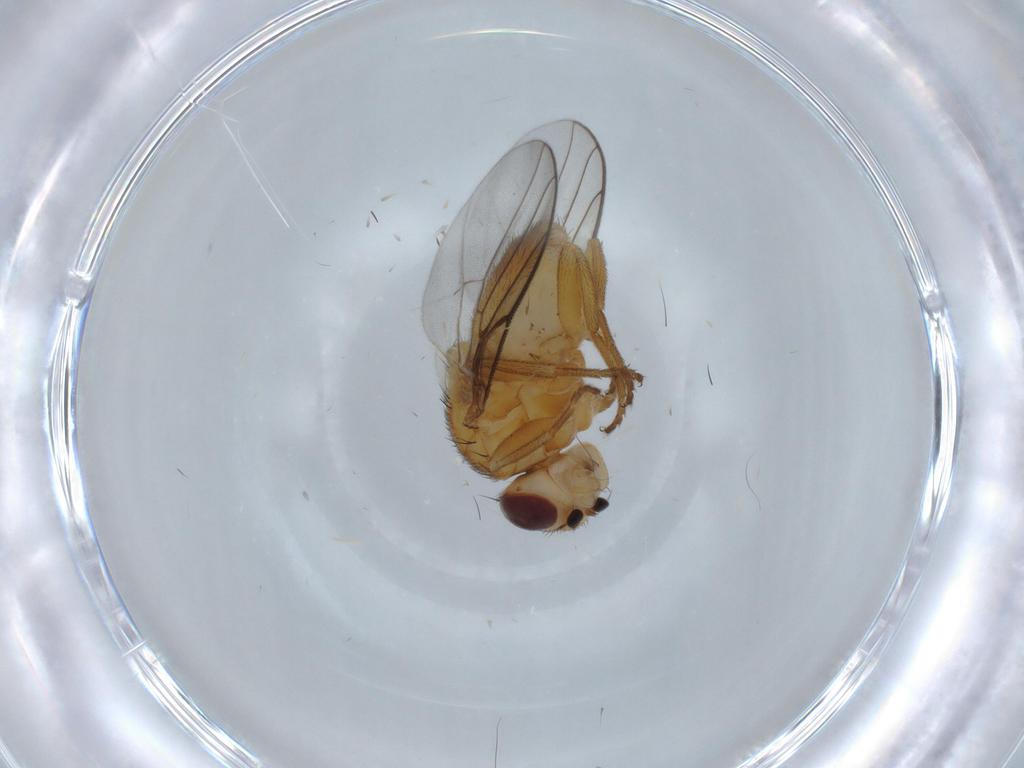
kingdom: Animalia
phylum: Arthropoda
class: Insecta
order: Diptera
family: Chloropidae
